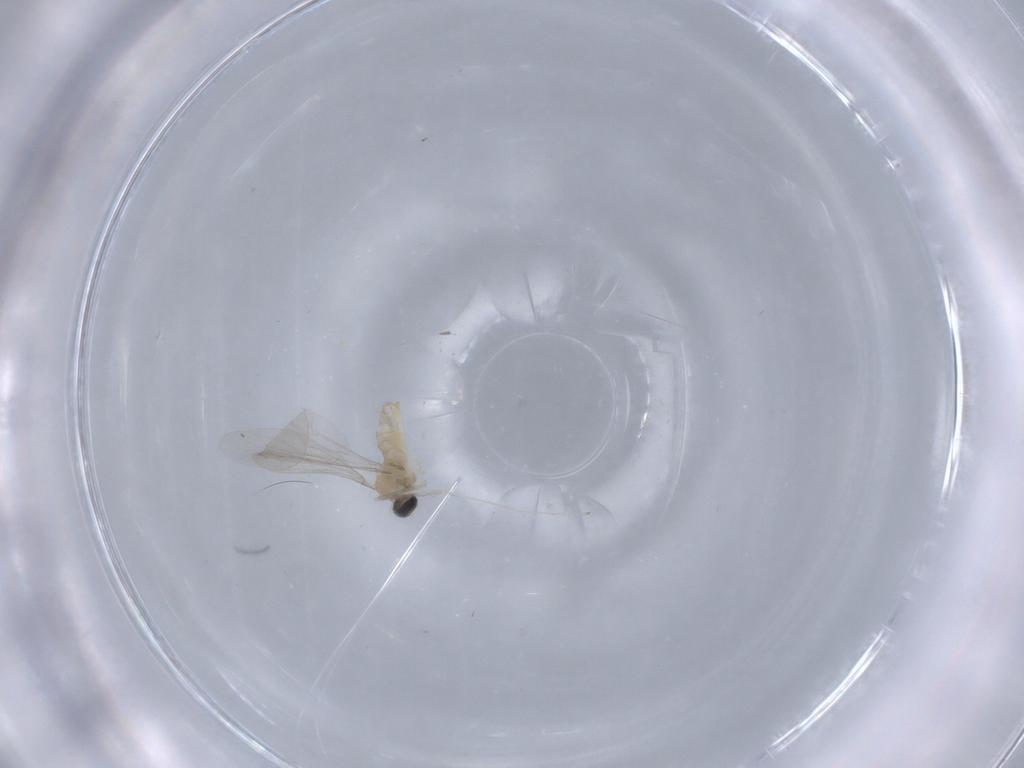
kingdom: Animalia
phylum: Arthropoda
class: Insecta
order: Diptera
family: Cecidomyiidae
